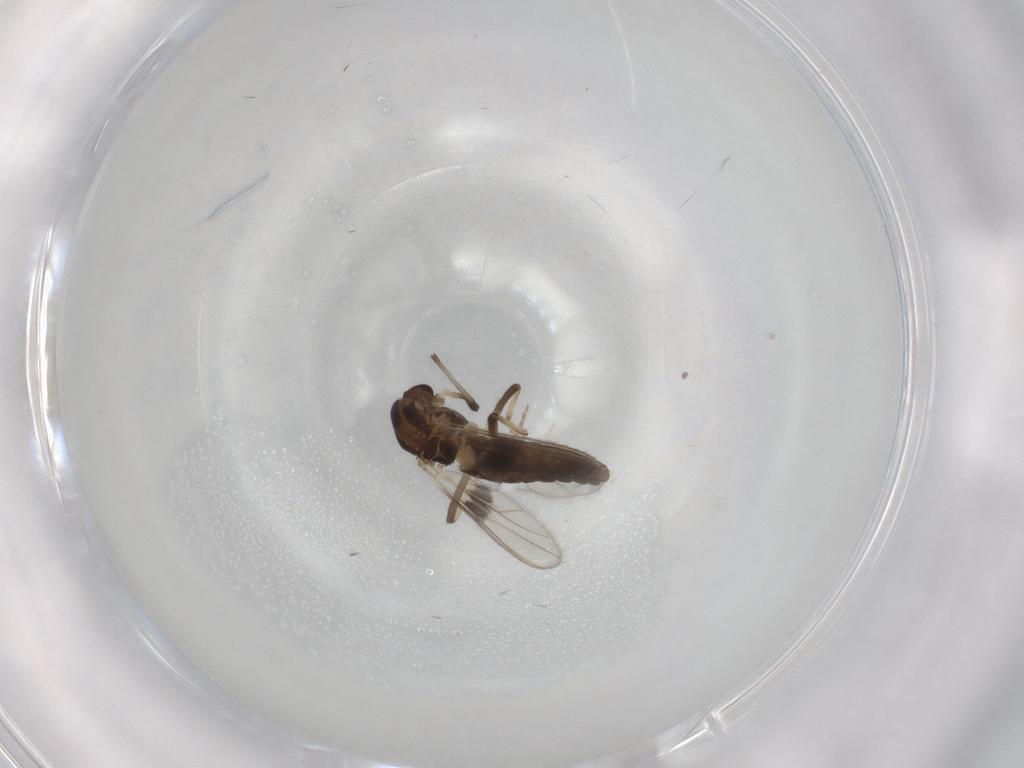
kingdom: Animalia
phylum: Arthropoda
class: Insecta
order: Diptera
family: Chironomidae
